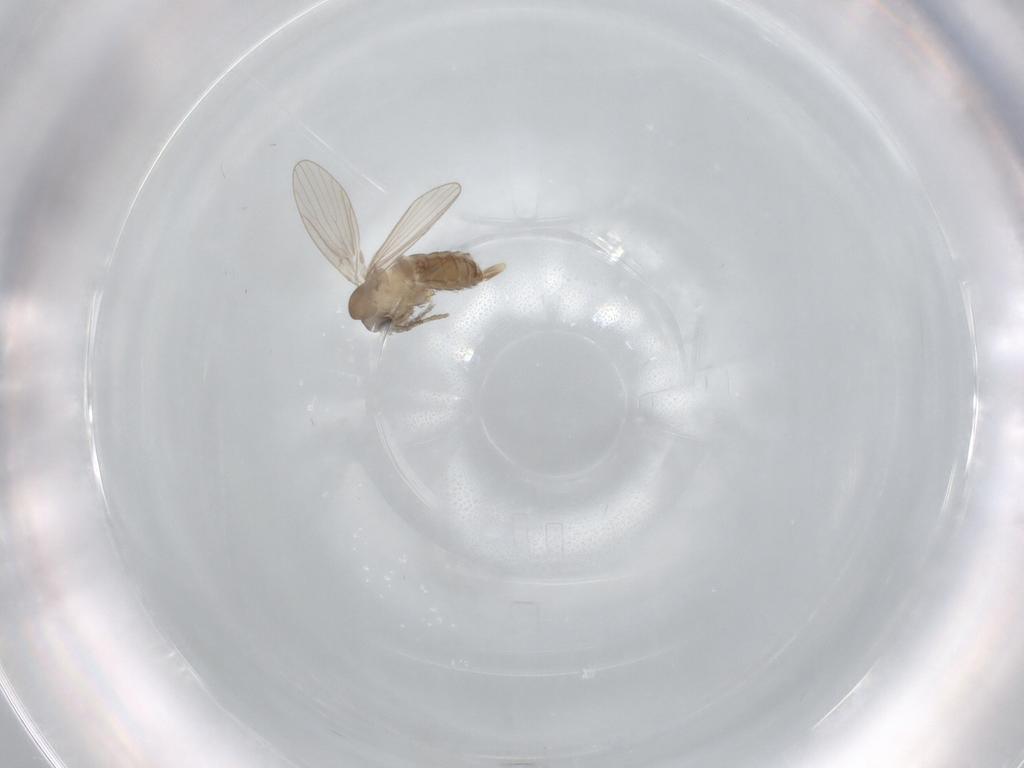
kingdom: Animalia
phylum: Arthropoda
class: Insecta
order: Diptera
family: Psychodidae
